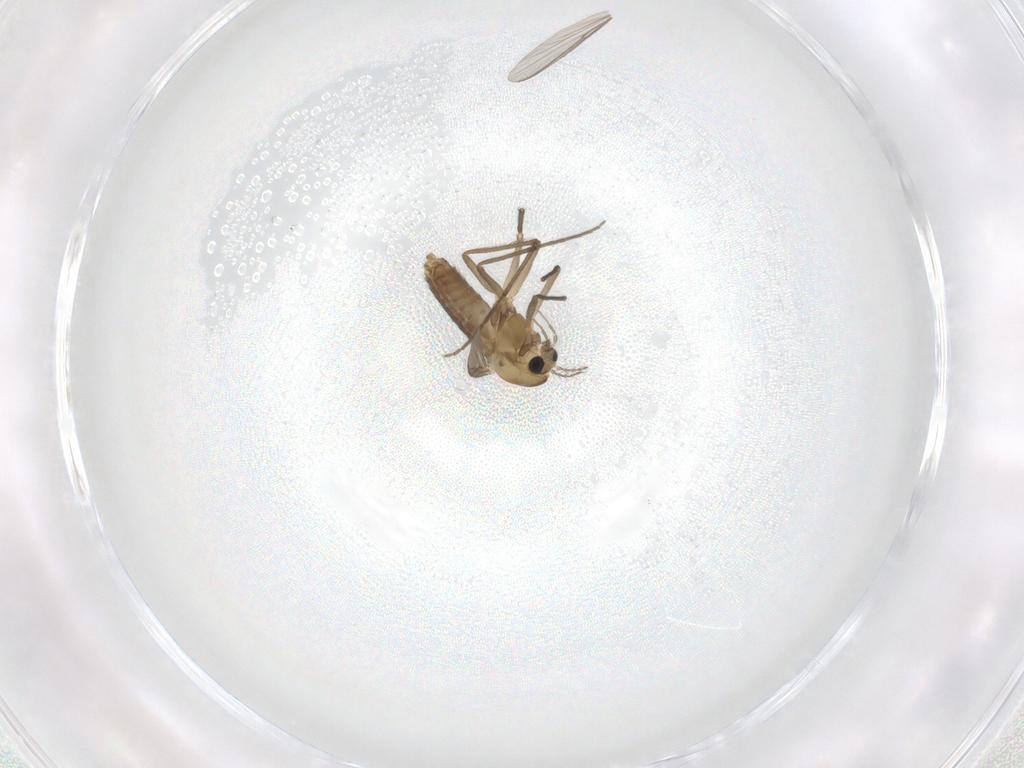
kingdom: Animalia
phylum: Arthropoda
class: Insecta
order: Diptera
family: Chironomidae
